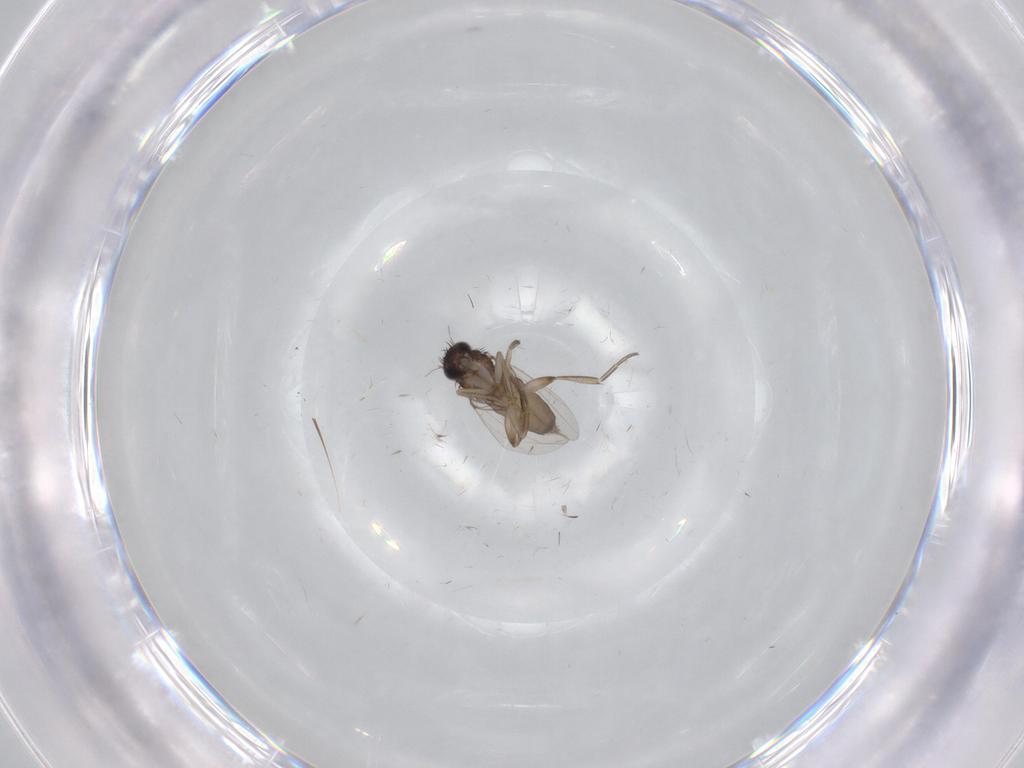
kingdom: Animalia
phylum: Arthropoda
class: Insecta
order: Diptera
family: Phoridae
